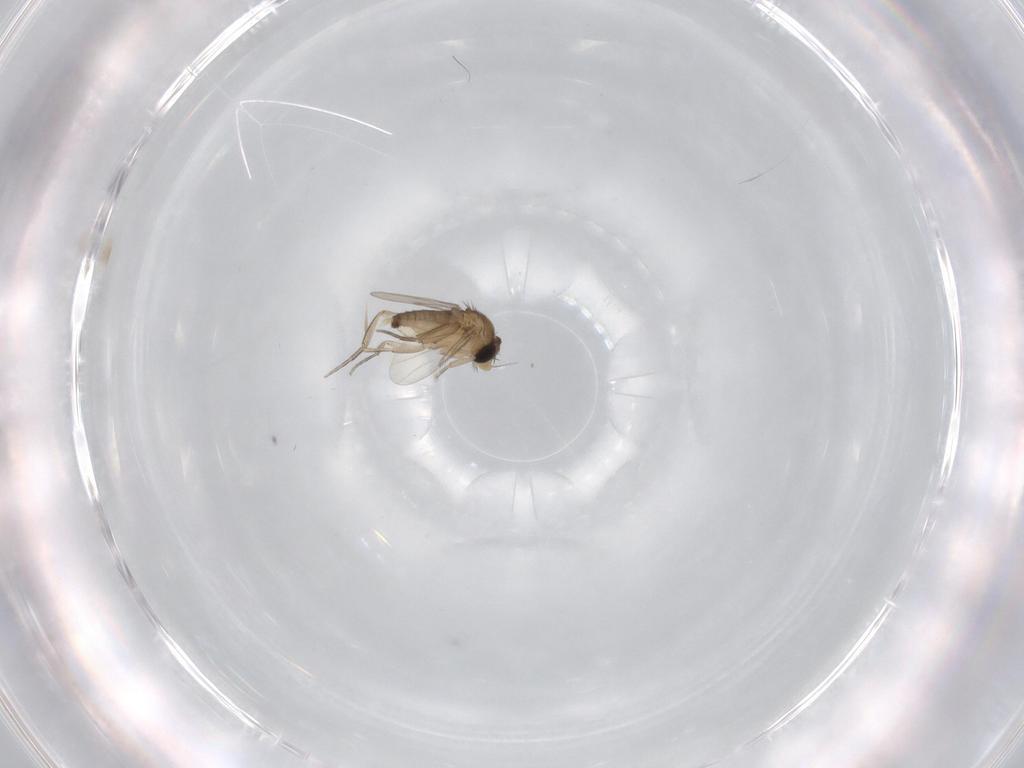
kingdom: Animalia
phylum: Arthropoda
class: Insecta
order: Diptera
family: Phoridae
